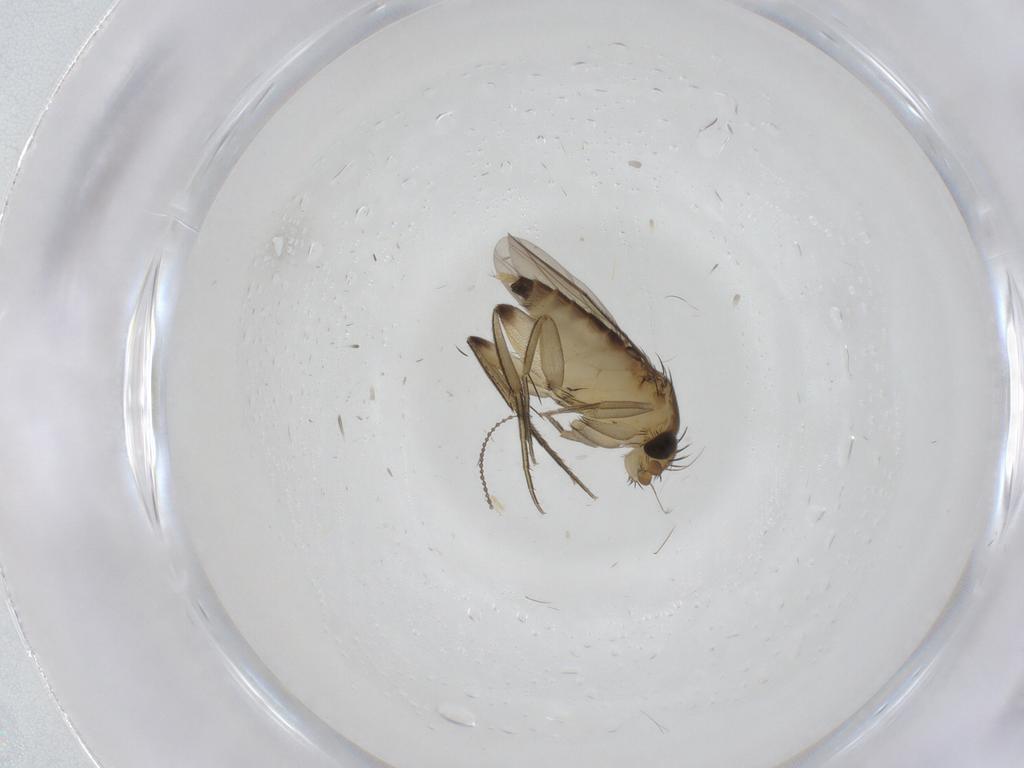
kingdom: Animalia
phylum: Arthropoda
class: Insecta
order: Diptera
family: Cecidomyiidae
